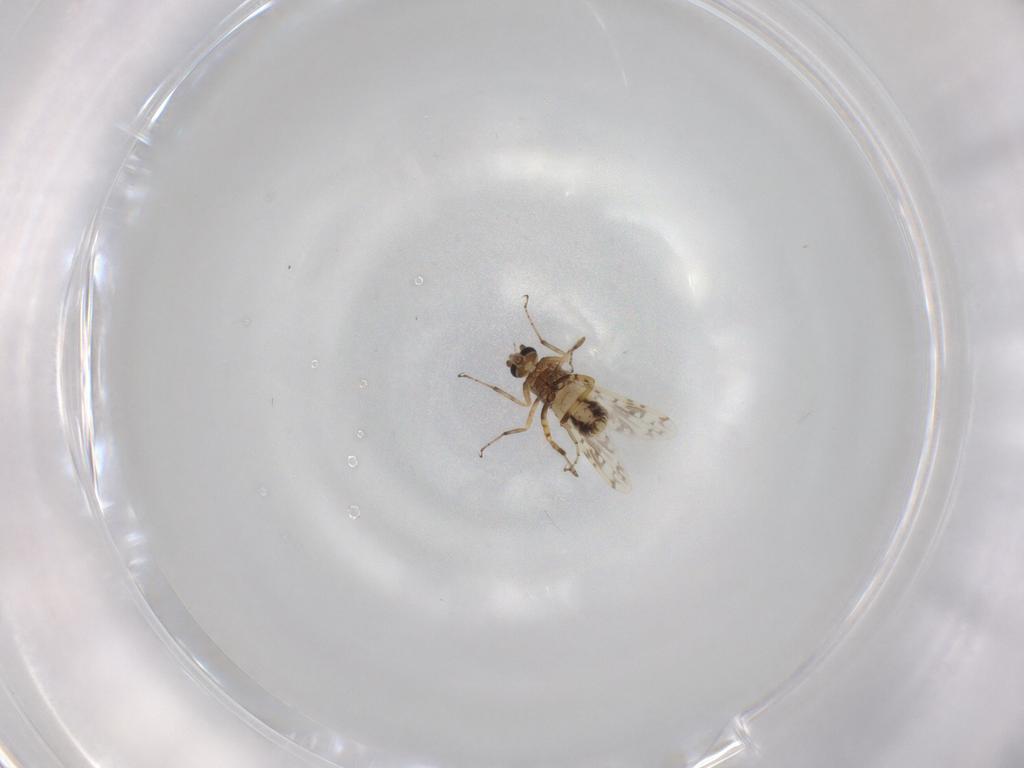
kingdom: Animalia
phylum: Arthropoda
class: Insecta
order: Diptera
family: Ceratopogonidae
